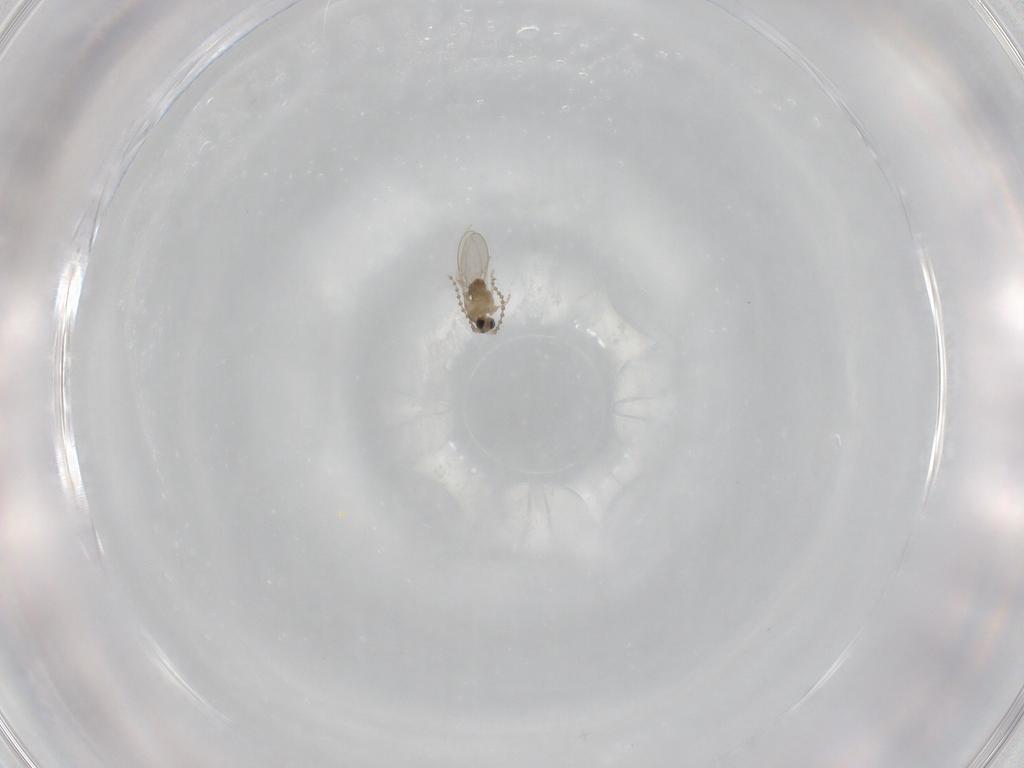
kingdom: Animalia
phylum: Arthropoda
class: Insecta
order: Diptera
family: Cecidomyiidae
